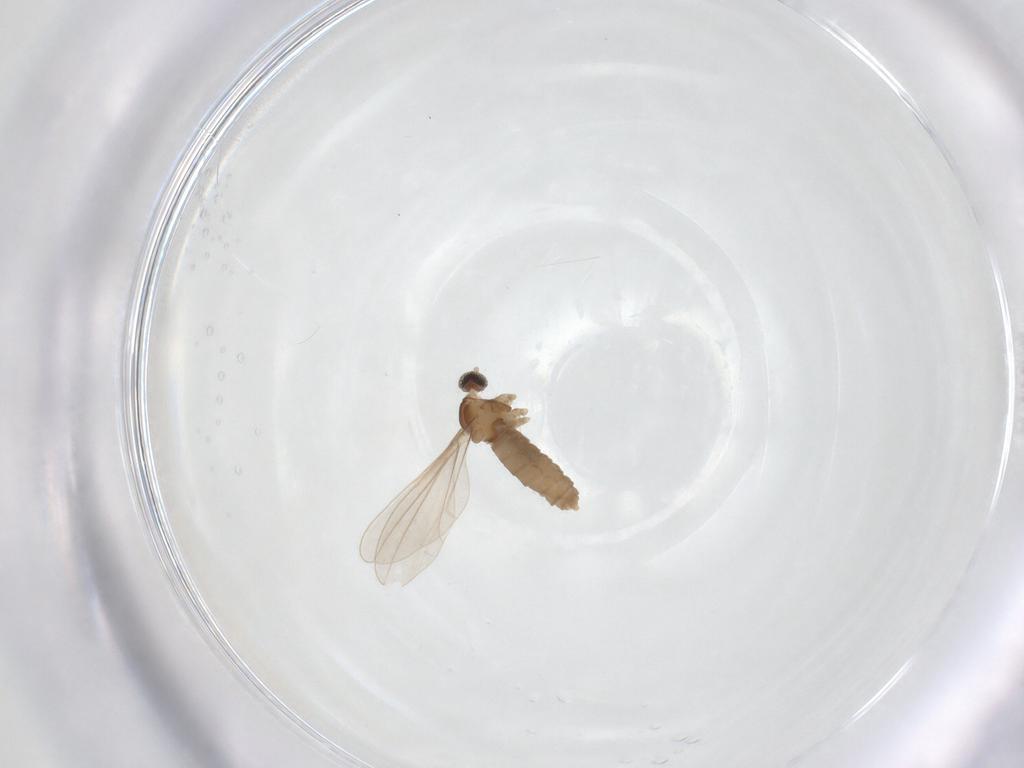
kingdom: Animalia
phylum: Arthropoda
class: Insecta
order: Diptera
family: Cecidomyiidae
